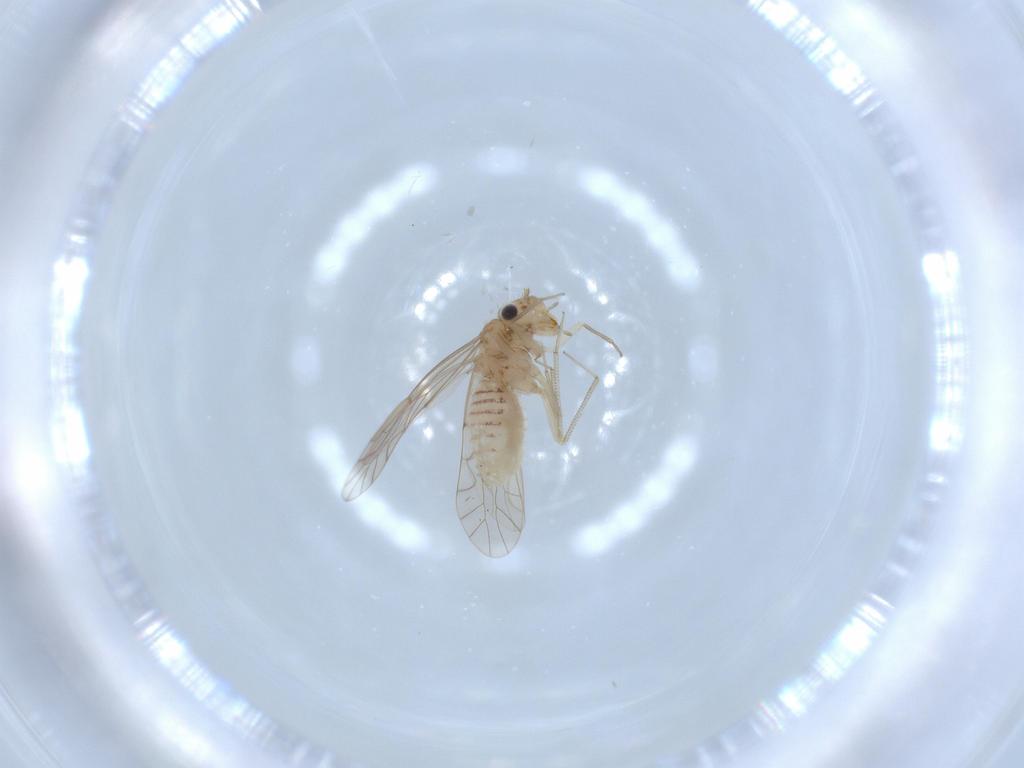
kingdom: Animalia
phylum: Arthropoda
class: Insecta
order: Psocodea
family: Lachesillidae
